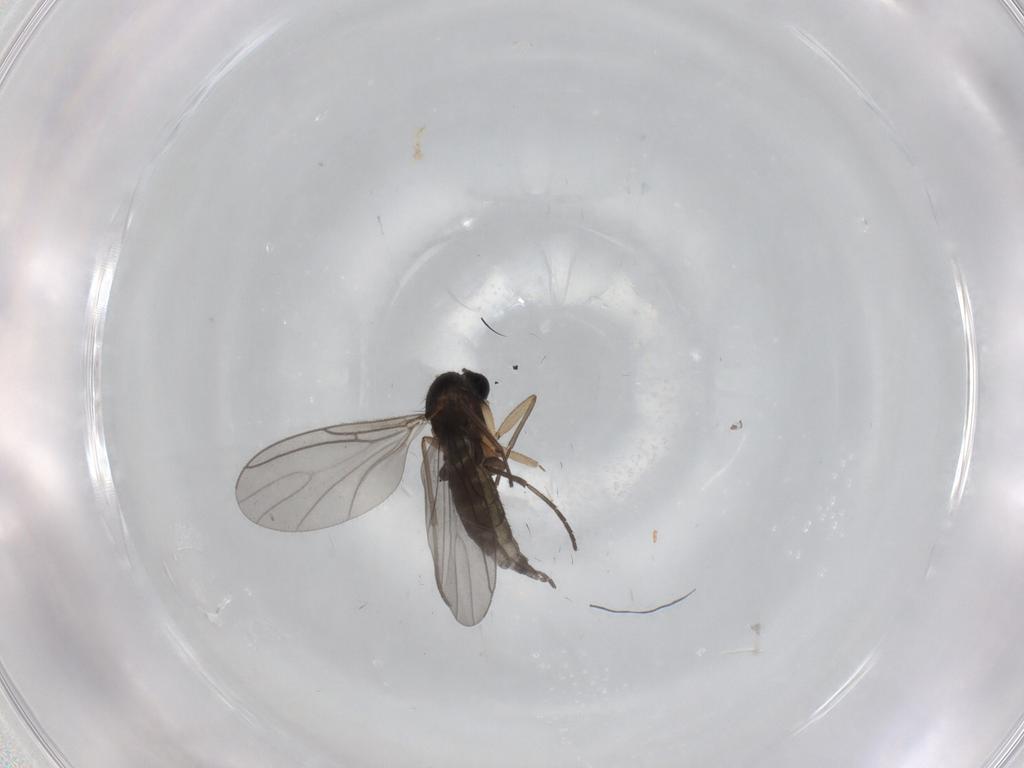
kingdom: Animalia
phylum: Arthropoda
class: Insecta
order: Diptera
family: Sciaridae
